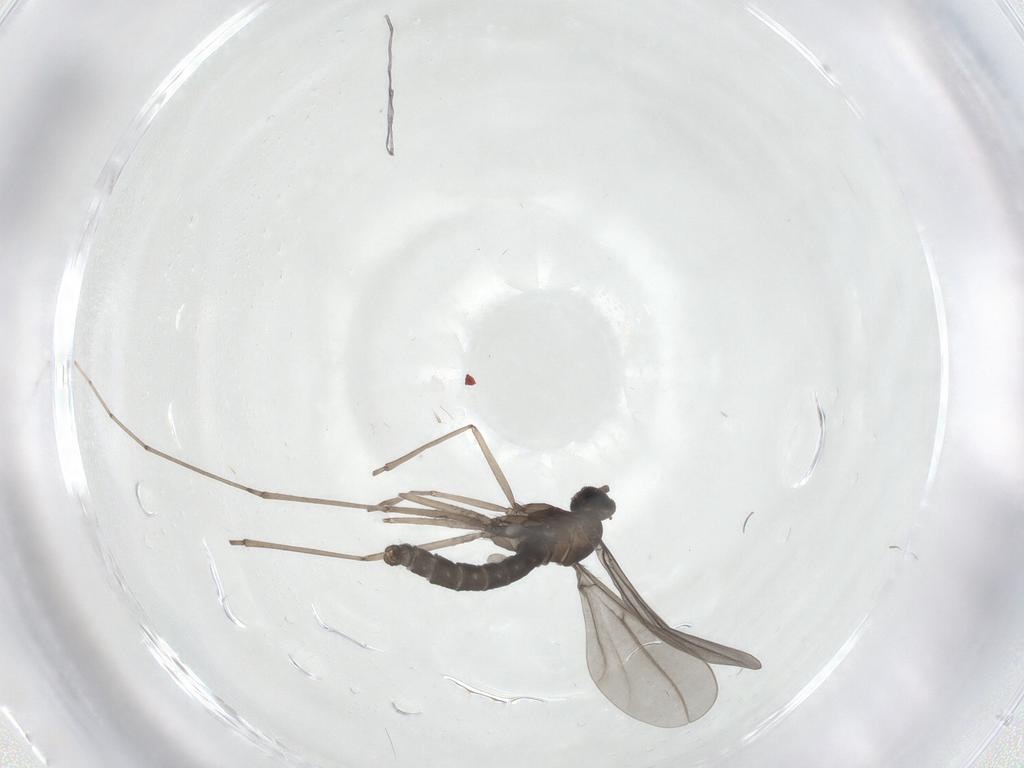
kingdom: Animalia
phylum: Arthropoda
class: Insecta
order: Diptera
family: Cecidomyiidae
